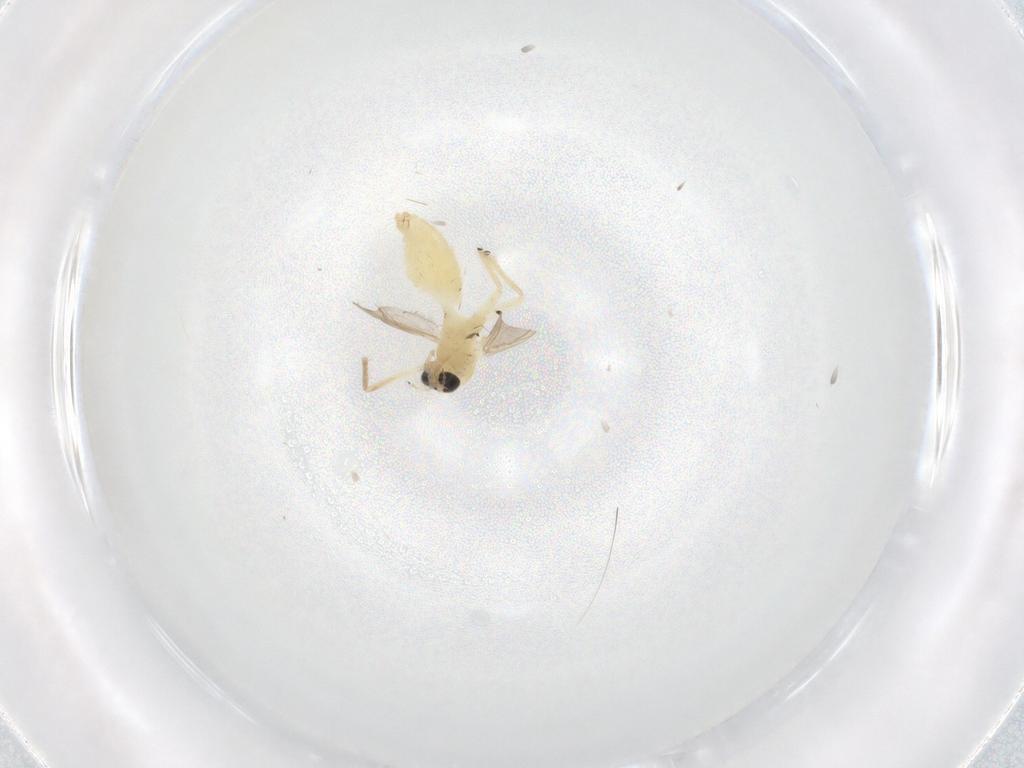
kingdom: Animalia
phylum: Arthropoda
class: Insecta
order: Diptera
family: Chironomidae
